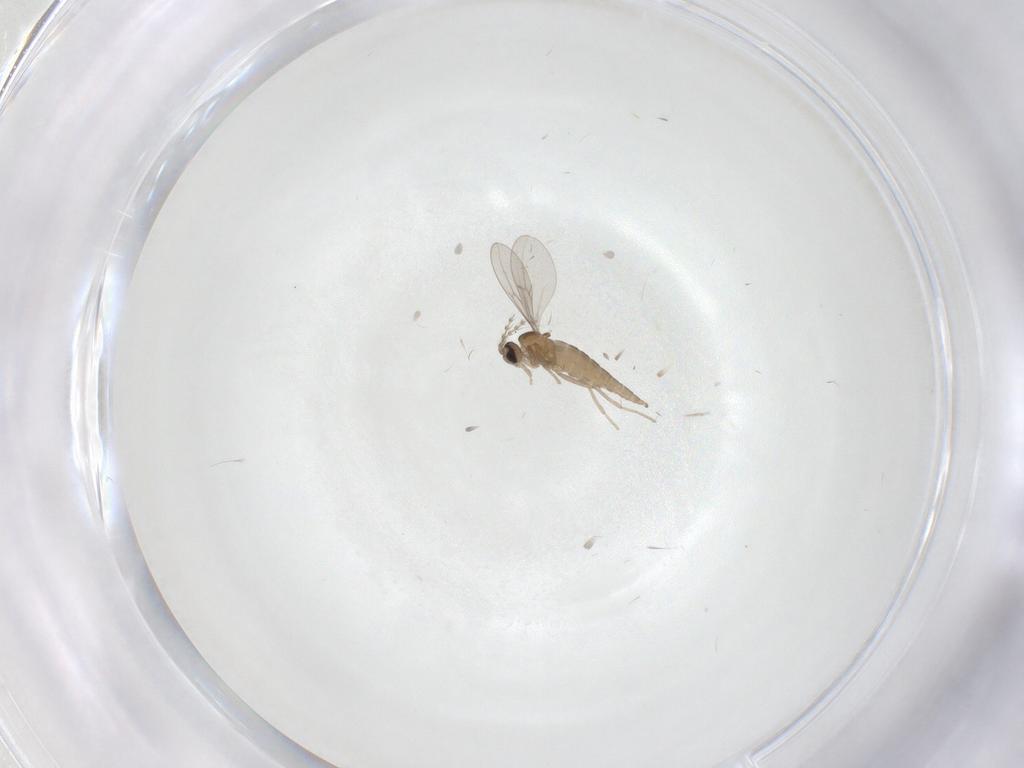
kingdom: Animalia
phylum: Arthropoda
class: Insecta
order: Diptera
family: Cecidomyiidae
